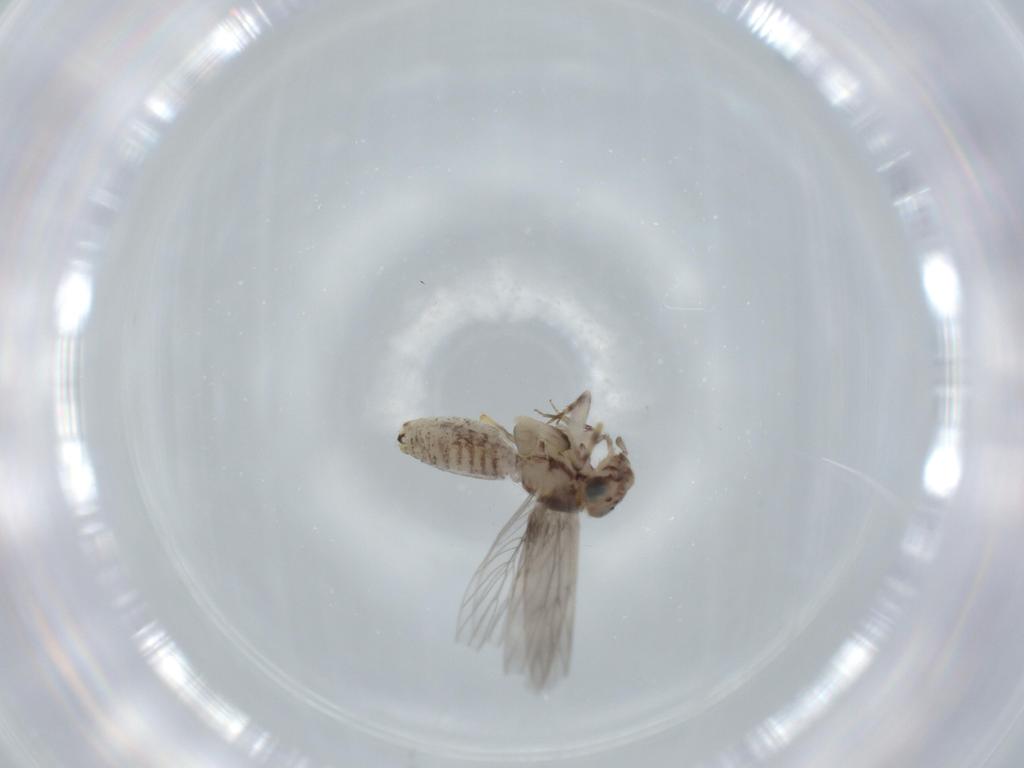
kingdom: Animalia
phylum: Arthropoda
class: Insecta
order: Psocodea
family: Lepidopsocidae
